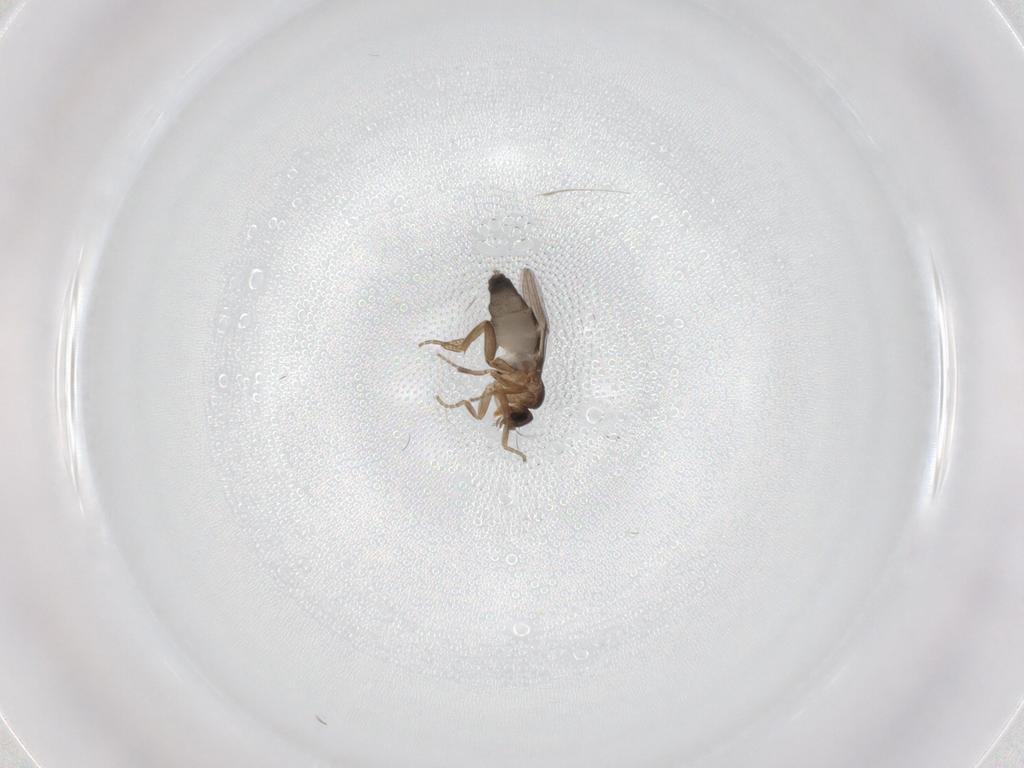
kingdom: Animalia
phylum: Arthropoda
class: Insecta
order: Diptera
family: Phoridae
